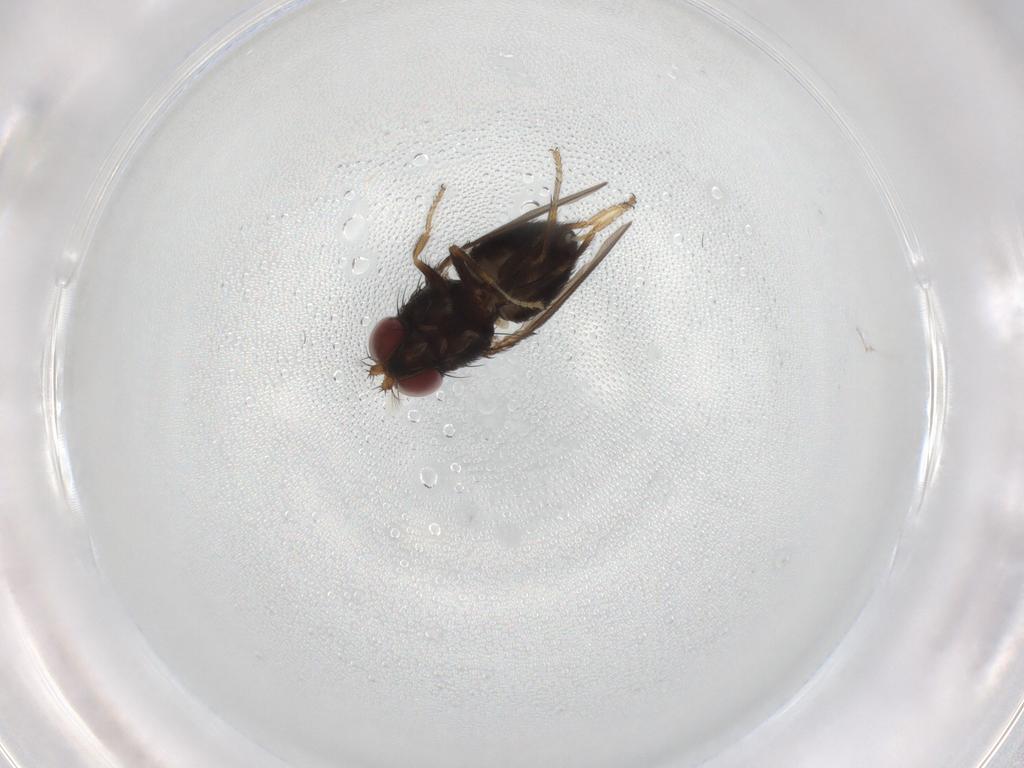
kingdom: Animalia
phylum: Arthropoda
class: Insecta
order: Diptera
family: Ephydridae
